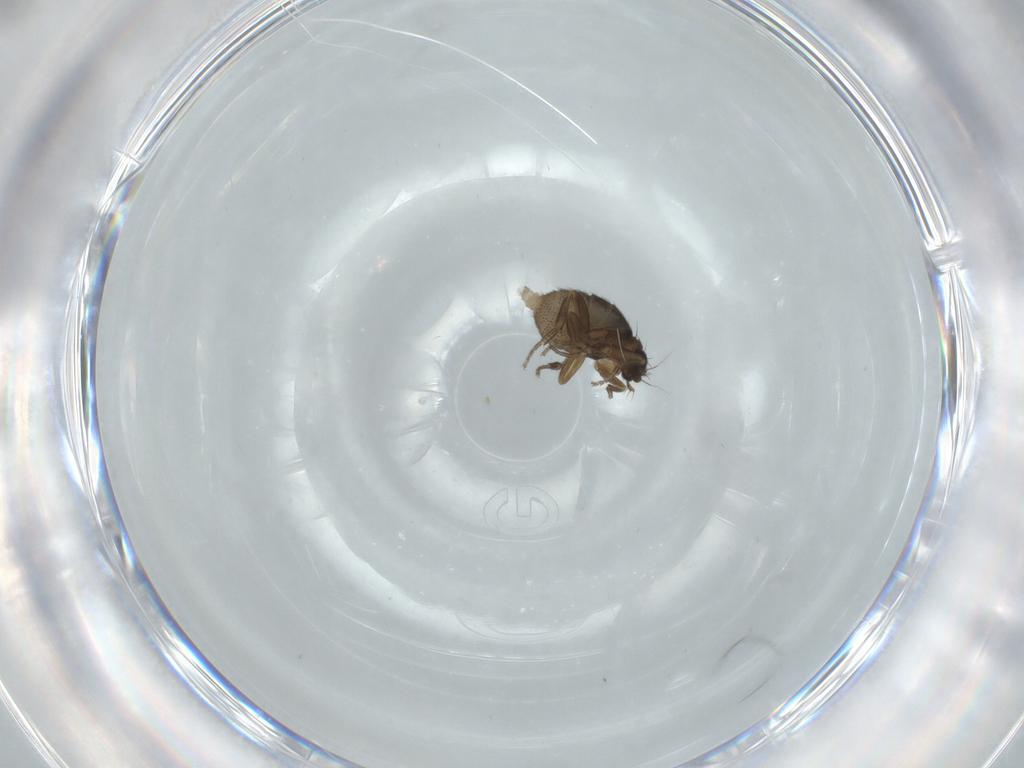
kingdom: Animalia
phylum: Arthropoda
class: Insecta
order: Diptera
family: Phoridae
